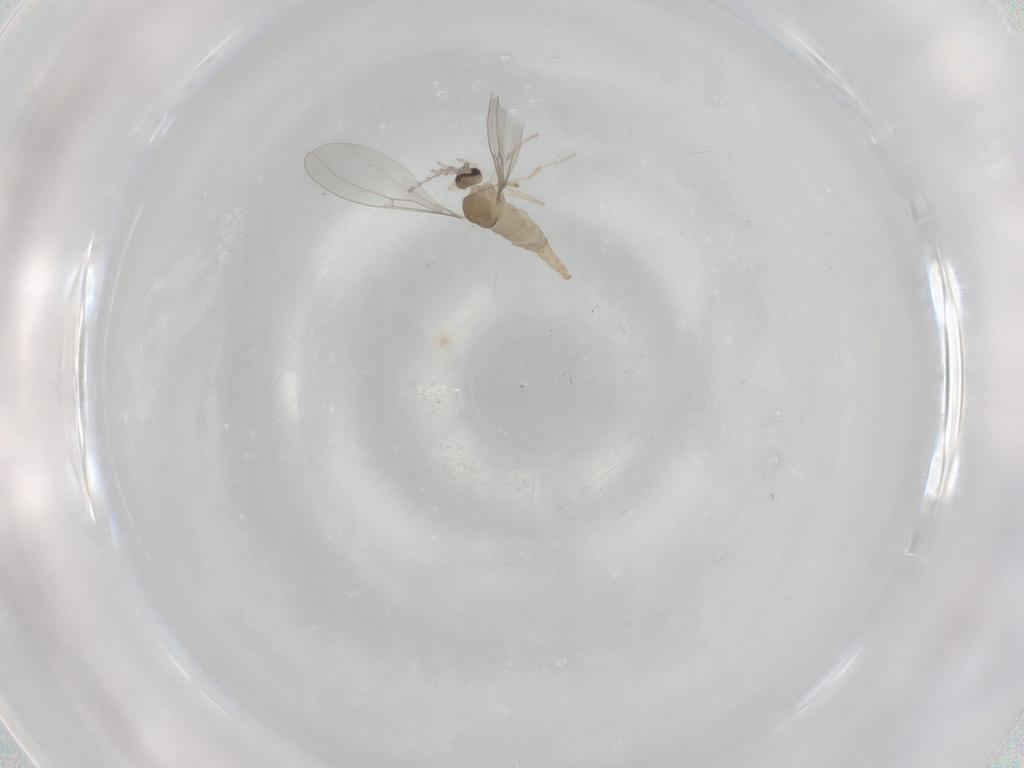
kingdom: Animalia
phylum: Arthropoda
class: Insecta
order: Diptera
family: Cecidomyiidae
